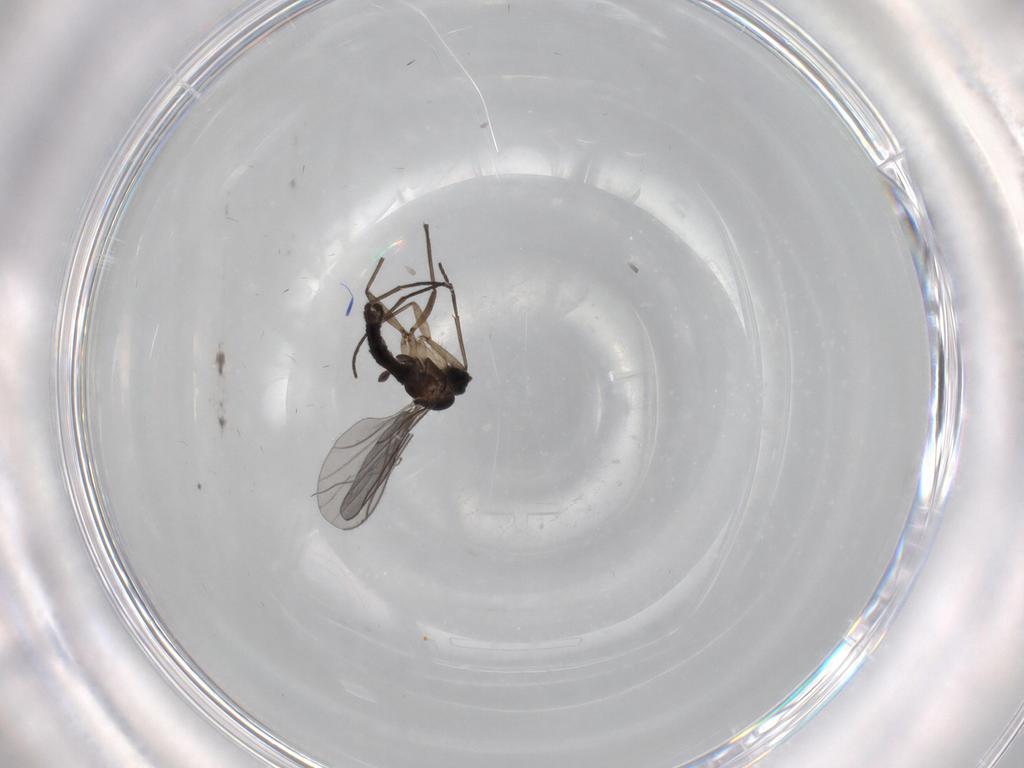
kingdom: Animalia
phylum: Arthropoda
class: Insecta
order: Diptera
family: Sciaridae
